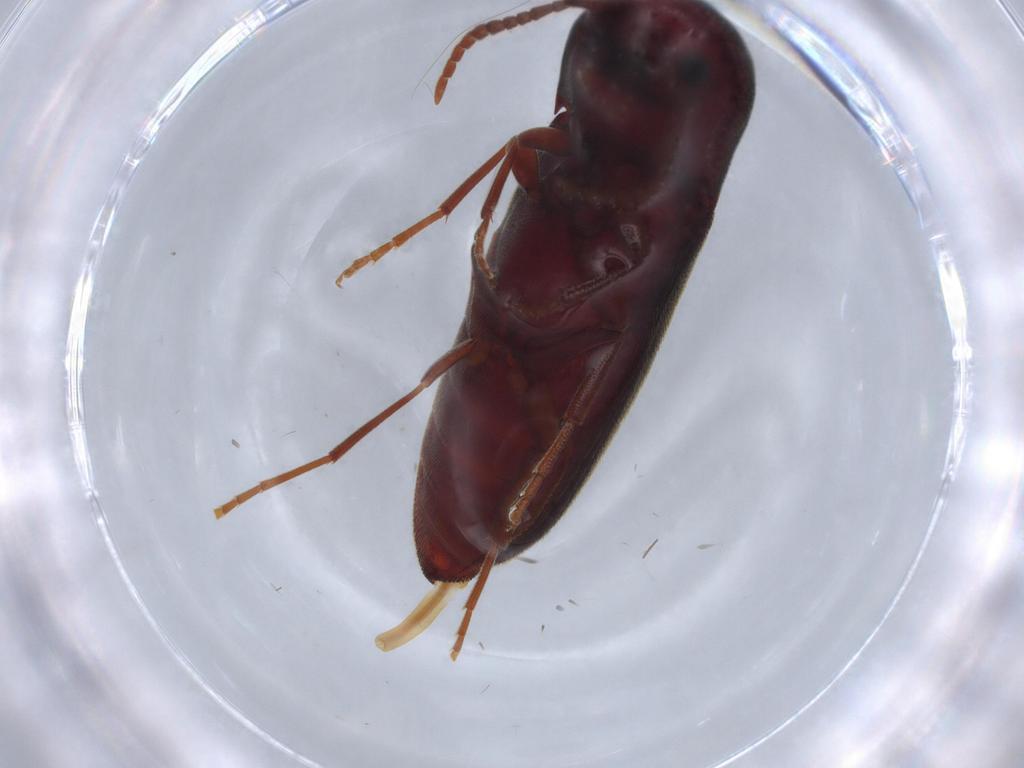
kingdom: Animalia
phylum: Arthropoda
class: Insecta
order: Coleoptera
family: Eucnemidae
